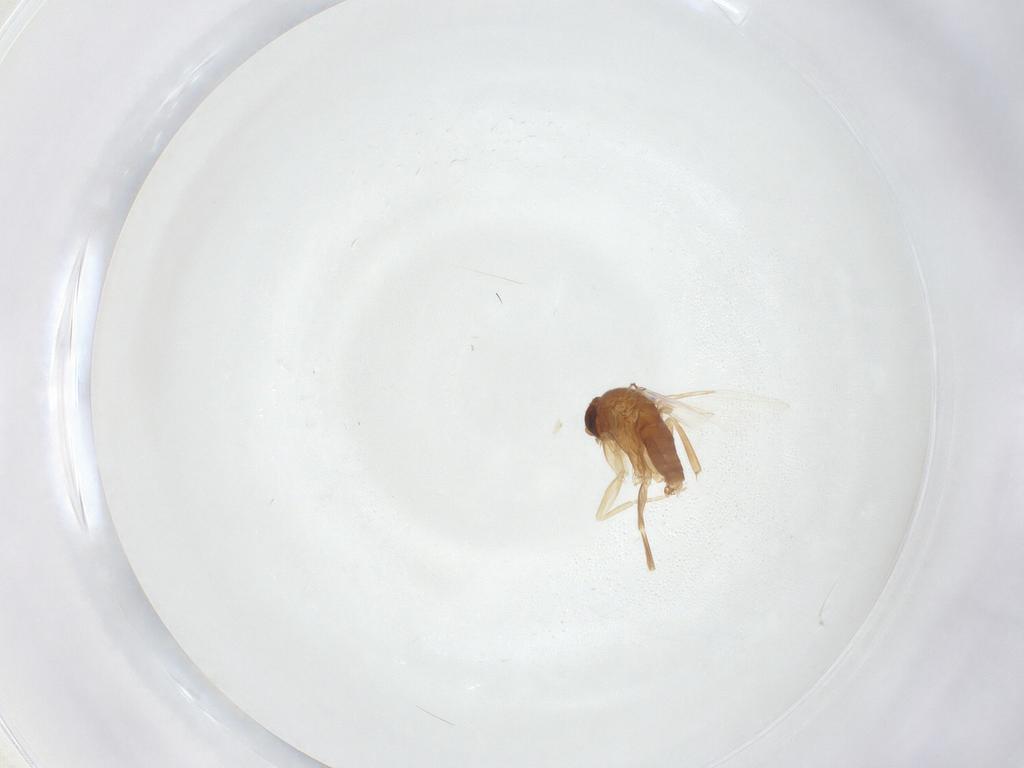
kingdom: Animalia
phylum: Arthropoda
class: Insecta
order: Diptera
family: Phoridae
